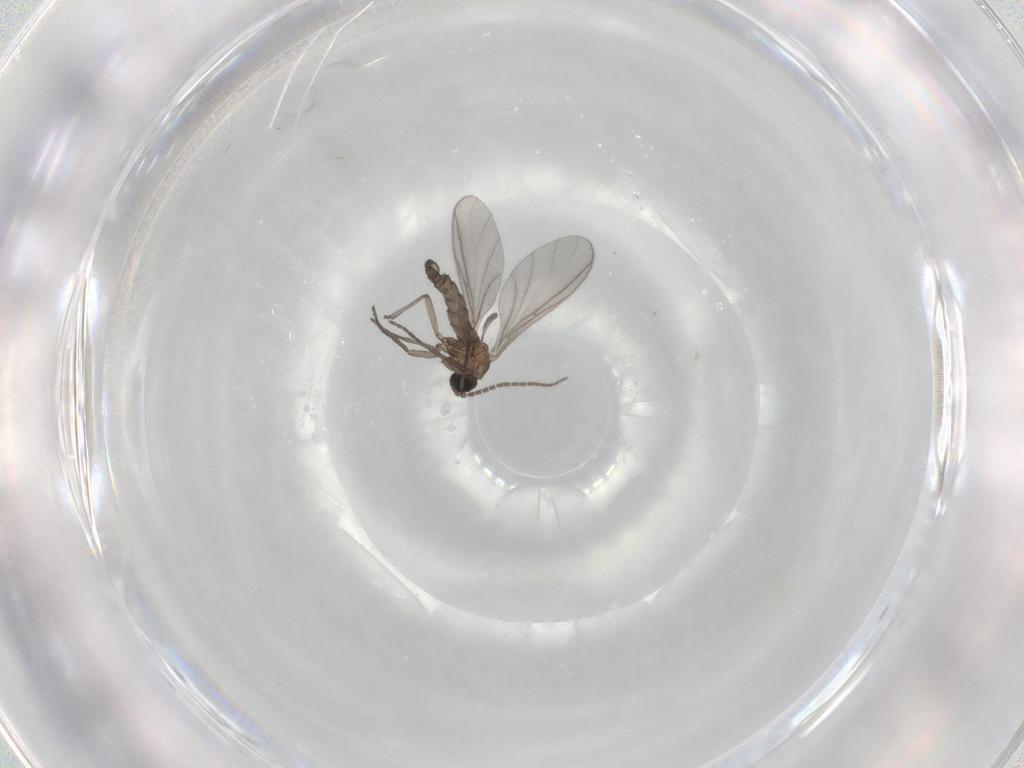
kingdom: Animalia
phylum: Arthropoda
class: Insecta
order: Diptera
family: Sciaridae
